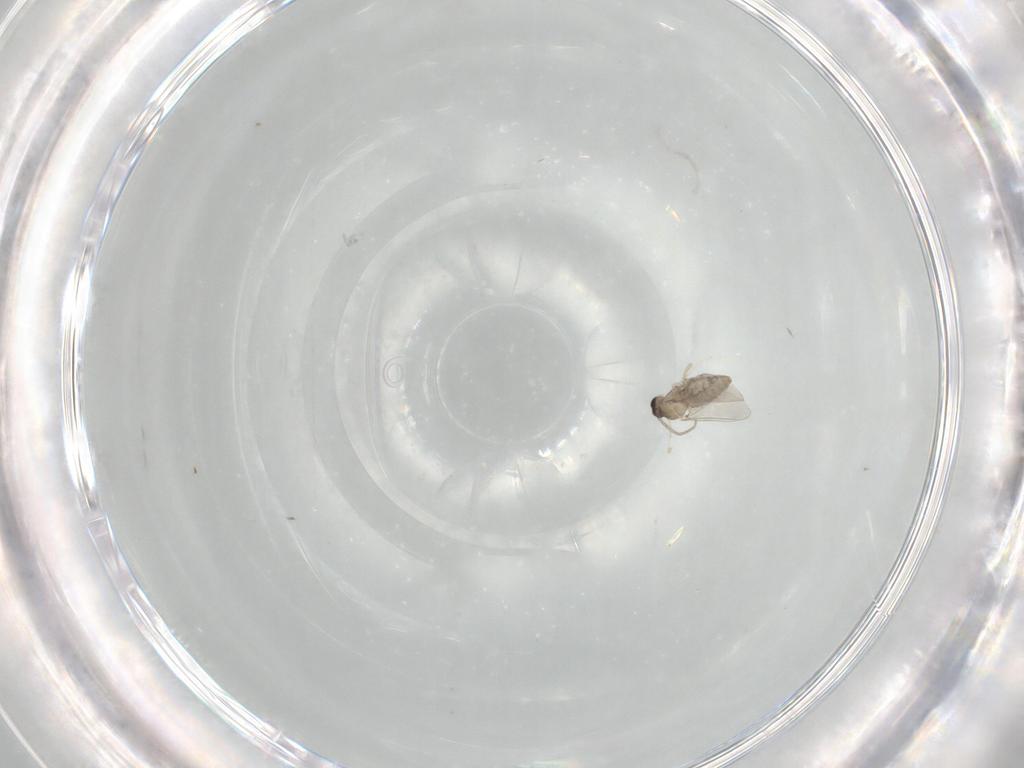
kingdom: Animalia
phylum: Arthropoda
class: Insecta
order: Diptera
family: Cecidomyiidae
